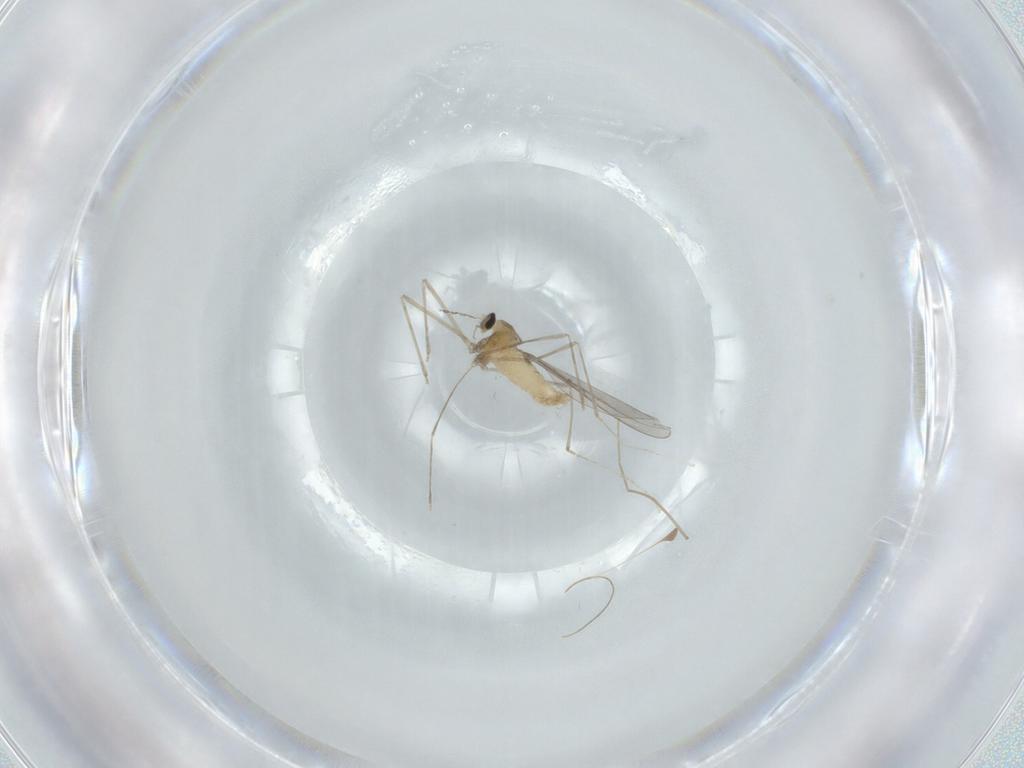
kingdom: Animalia
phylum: Arthropoda
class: Insecta
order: Diptera
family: Cecidomyiidae
